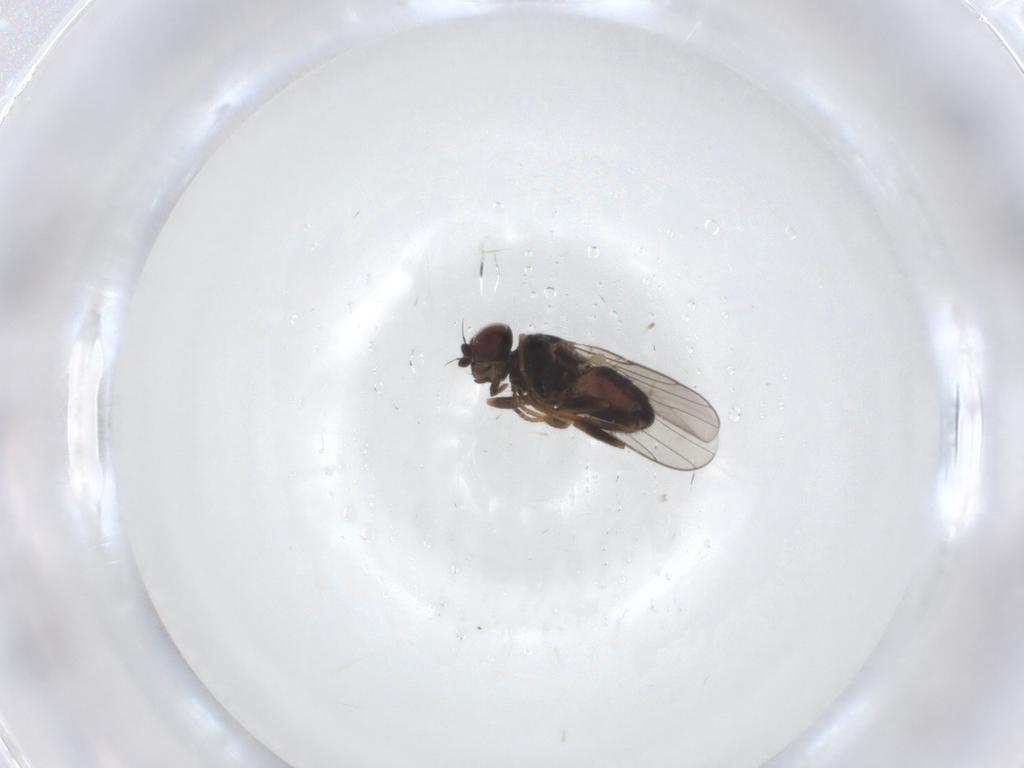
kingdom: Animalia
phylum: Arthropoda
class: Insecta
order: Diptera
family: Chloropidae
